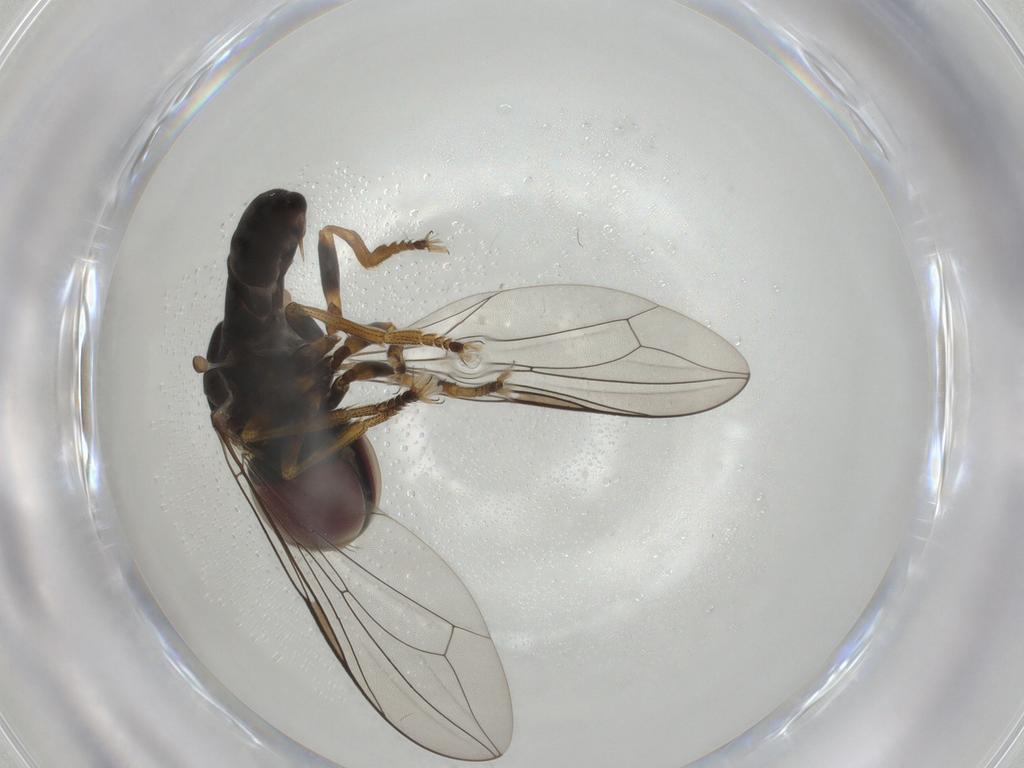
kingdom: Animalia
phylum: Arthropoda
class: Insecta
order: Diptera
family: Pipunculidae
